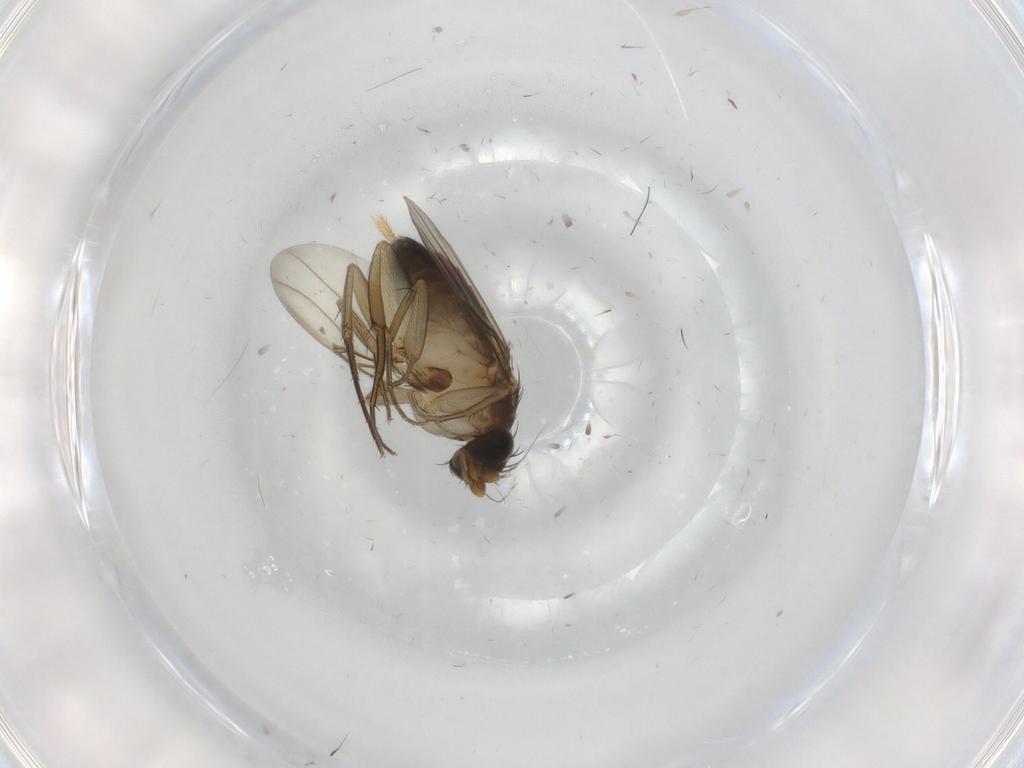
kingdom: Animalia
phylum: Arthropoda
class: Insecta
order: Diptera
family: Phoridae
